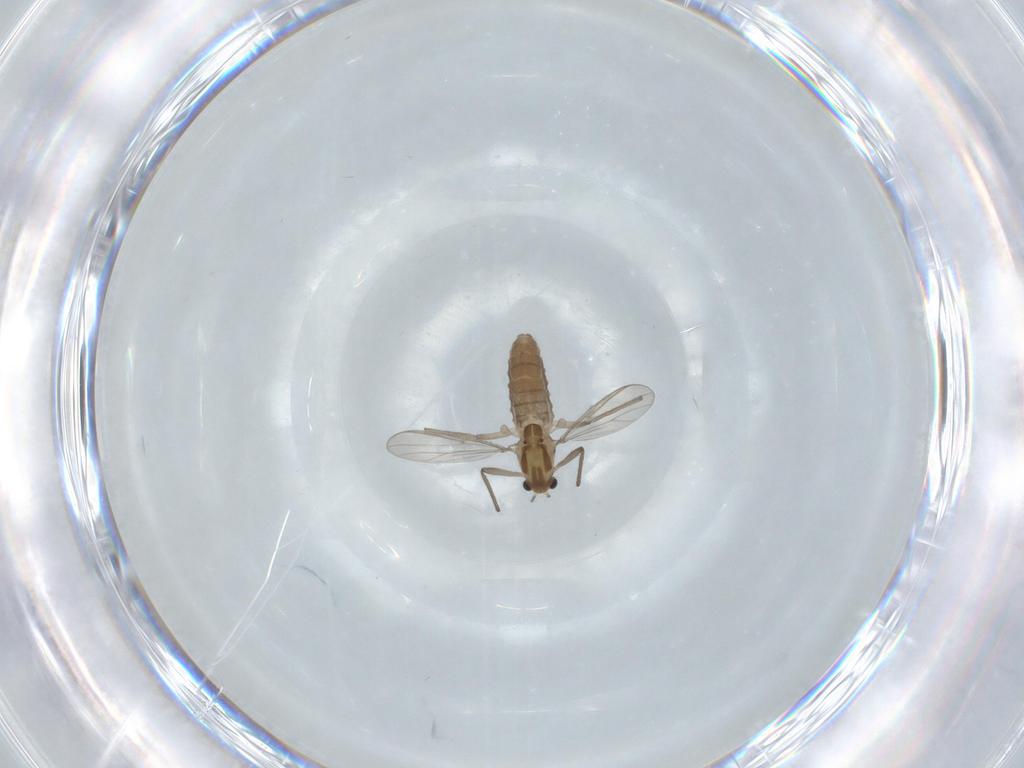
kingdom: Animalia
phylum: Arthropoda
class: Insecta
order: Diptera
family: Chironomidae
